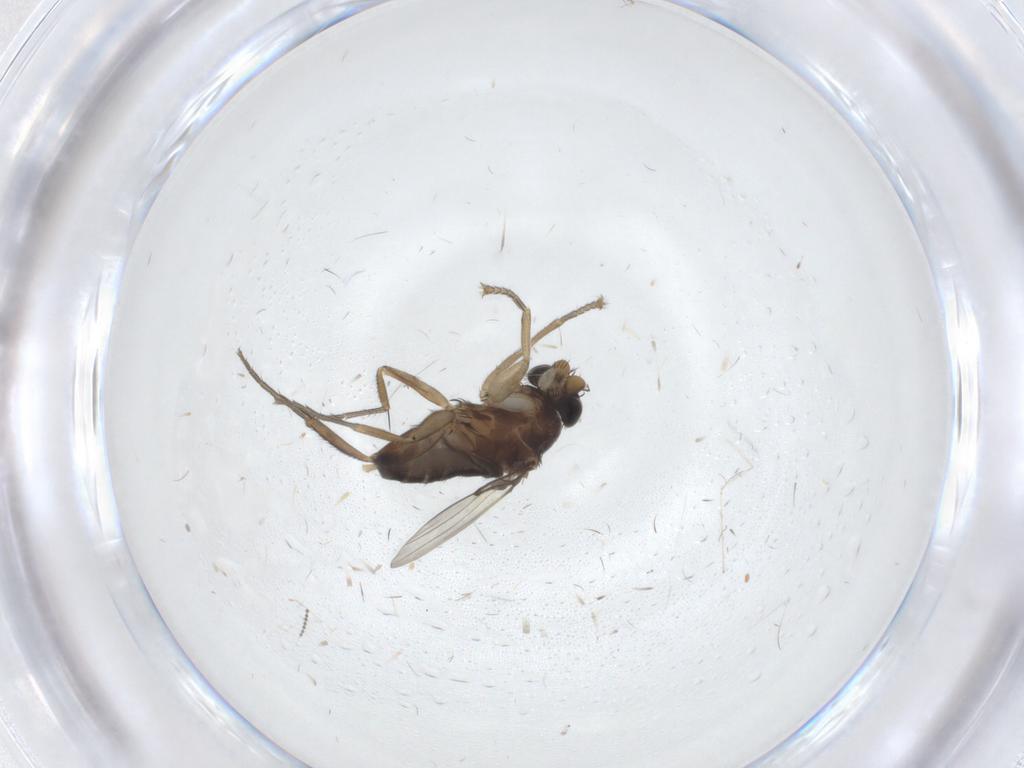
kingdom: Animalia
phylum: Arthropoda
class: Insecta
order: Diptera
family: Phoridae
